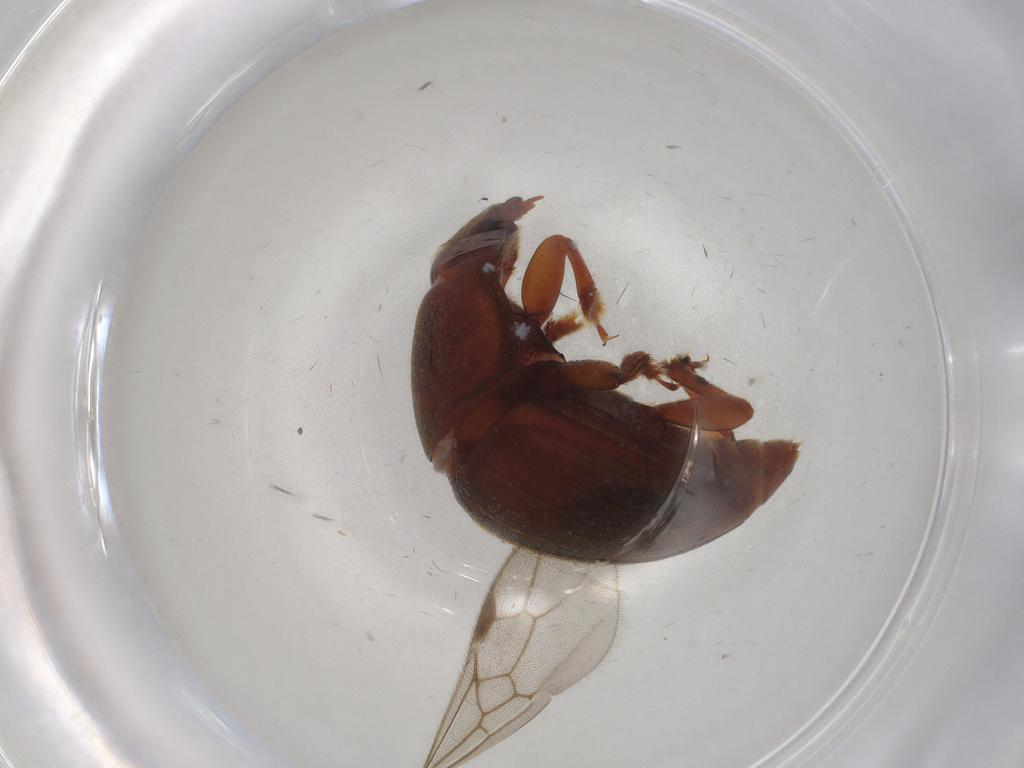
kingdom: Animalia
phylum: Arthropoda
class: Insecta
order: Coleoptera
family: Nitidulidae
